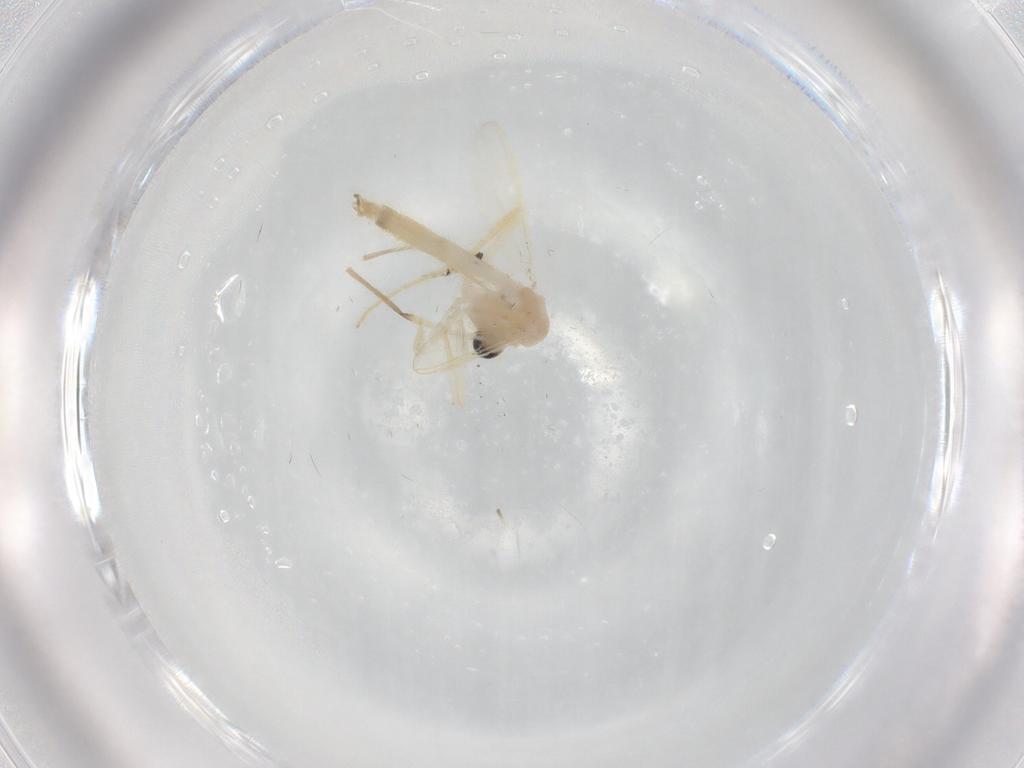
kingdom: Animalia
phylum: Arthropoda
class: Insecta
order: Diptera
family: Chironomidae
